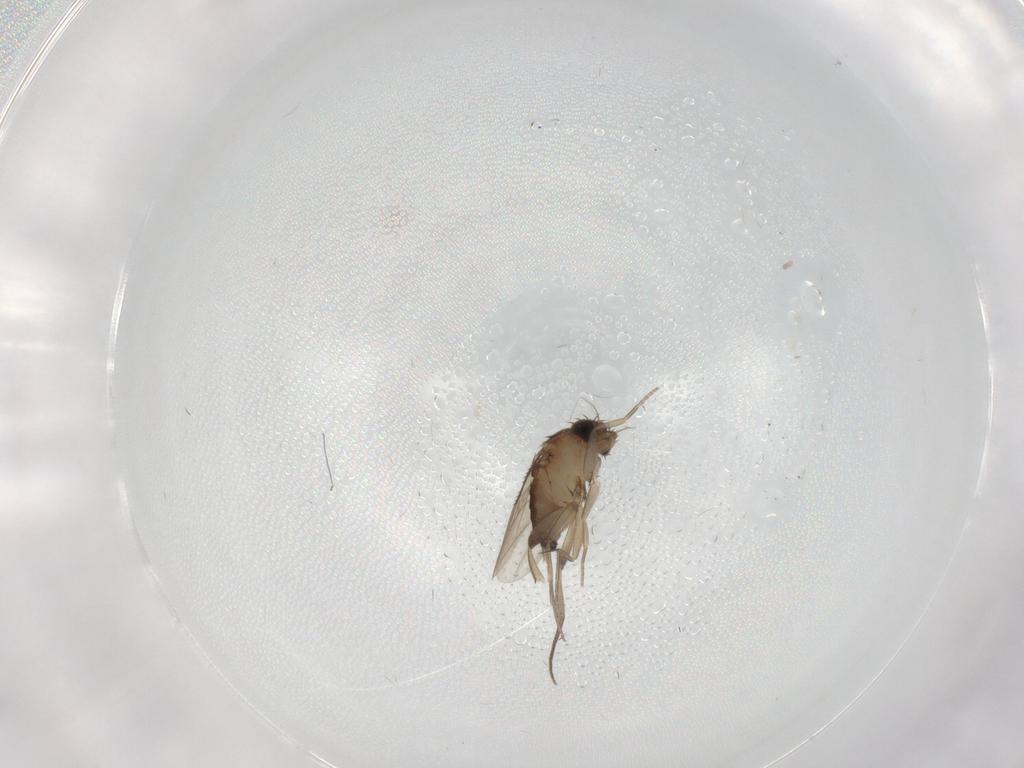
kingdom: Animalia
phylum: Arthropoda
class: Insecta
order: Diptera
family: Phoridae
